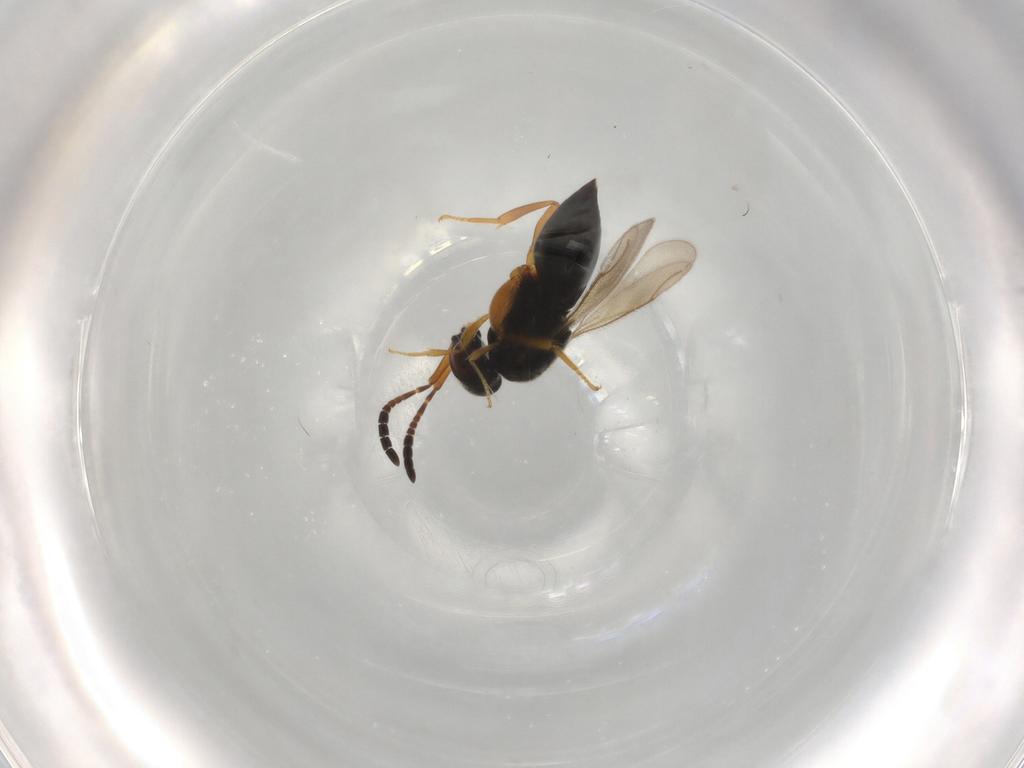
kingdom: Animalia
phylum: Arthropoda
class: Insecta
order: Hymenoptera
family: Ceraphronidae
